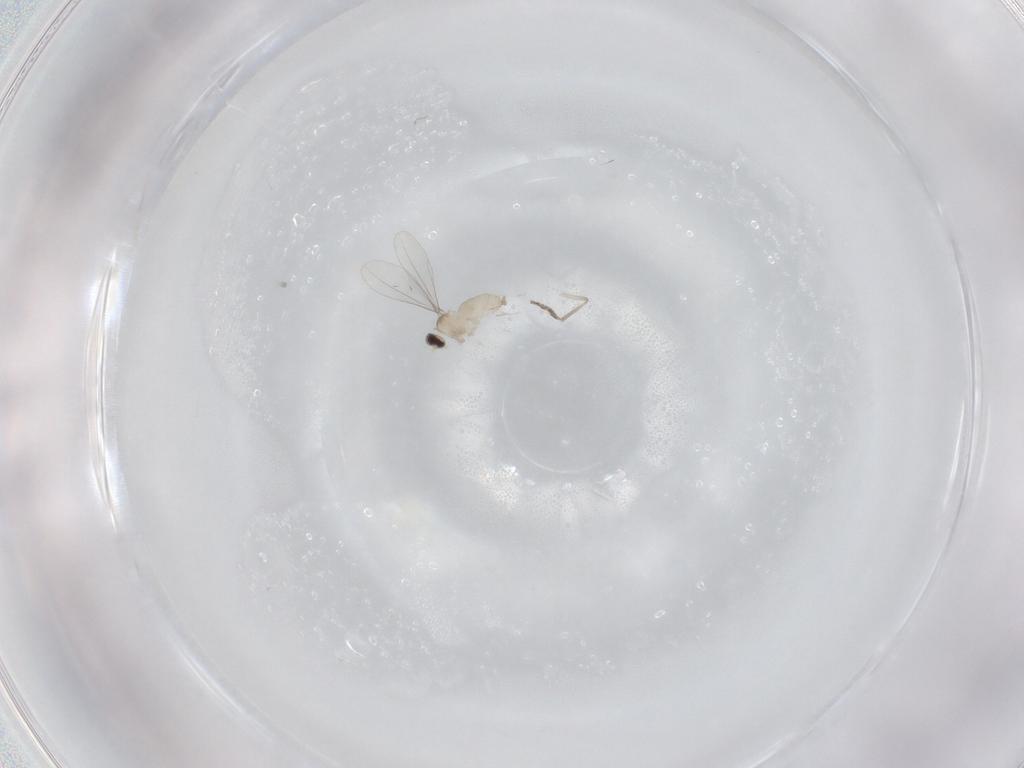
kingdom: Animalia
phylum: Arthropoda
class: Insecta
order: Diptera
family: Cecidomyiidae
